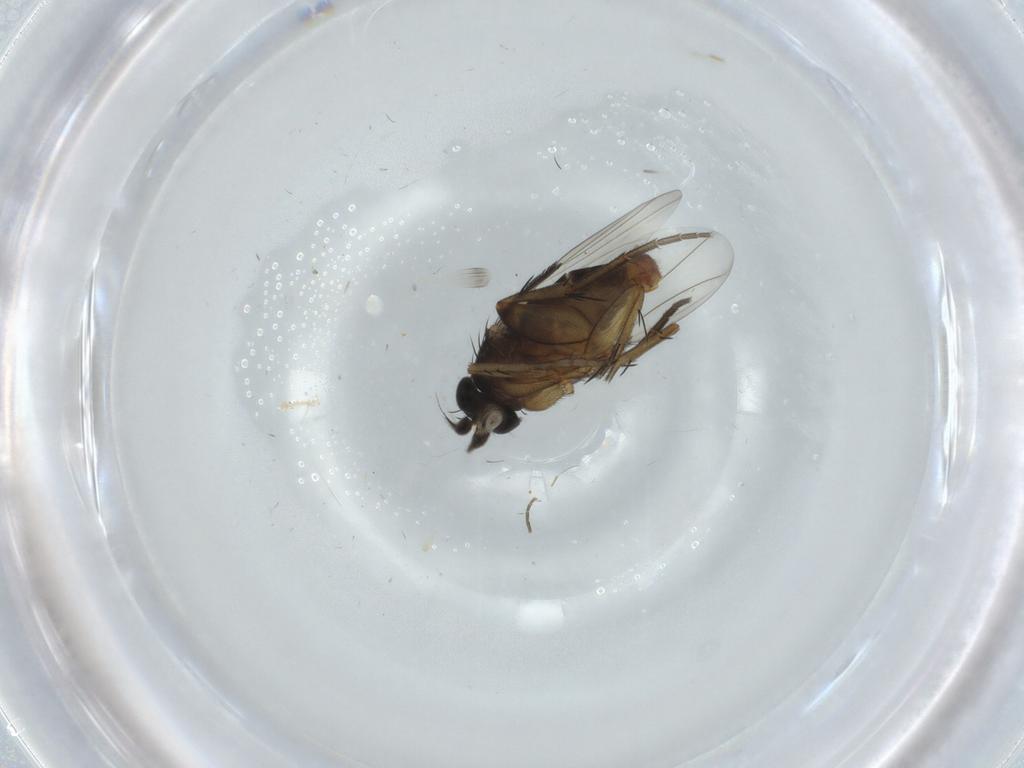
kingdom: Animalia
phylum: Arthropoda
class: Insecta
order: Diptera
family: Phoridae
